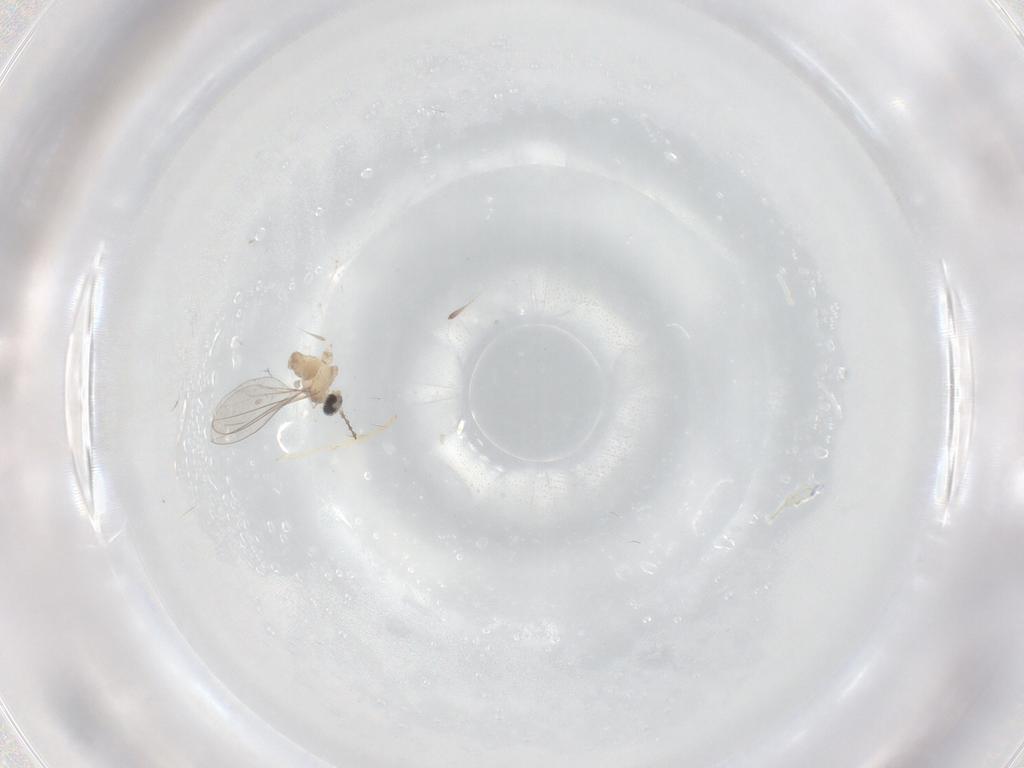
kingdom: Animalia
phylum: Arthropoda
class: Insecta
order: Diptera
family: Cecidomyiidae
